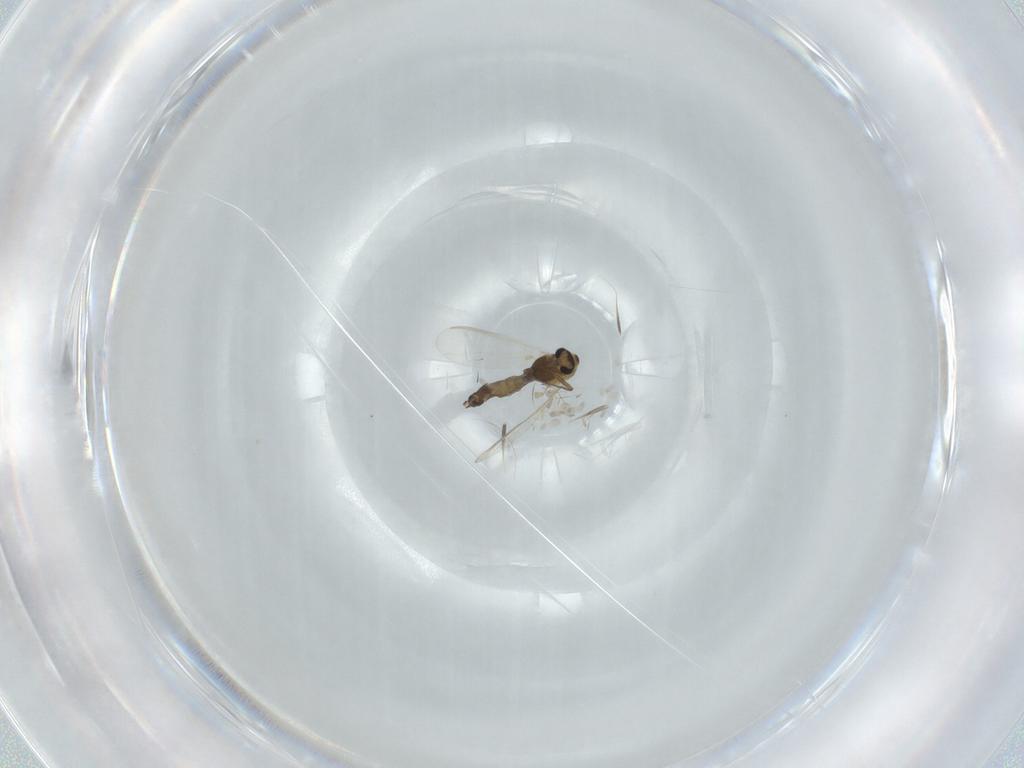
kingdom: Animalia
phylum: Arthropoda
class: Insecta
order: Diptera
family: Chironomidae
